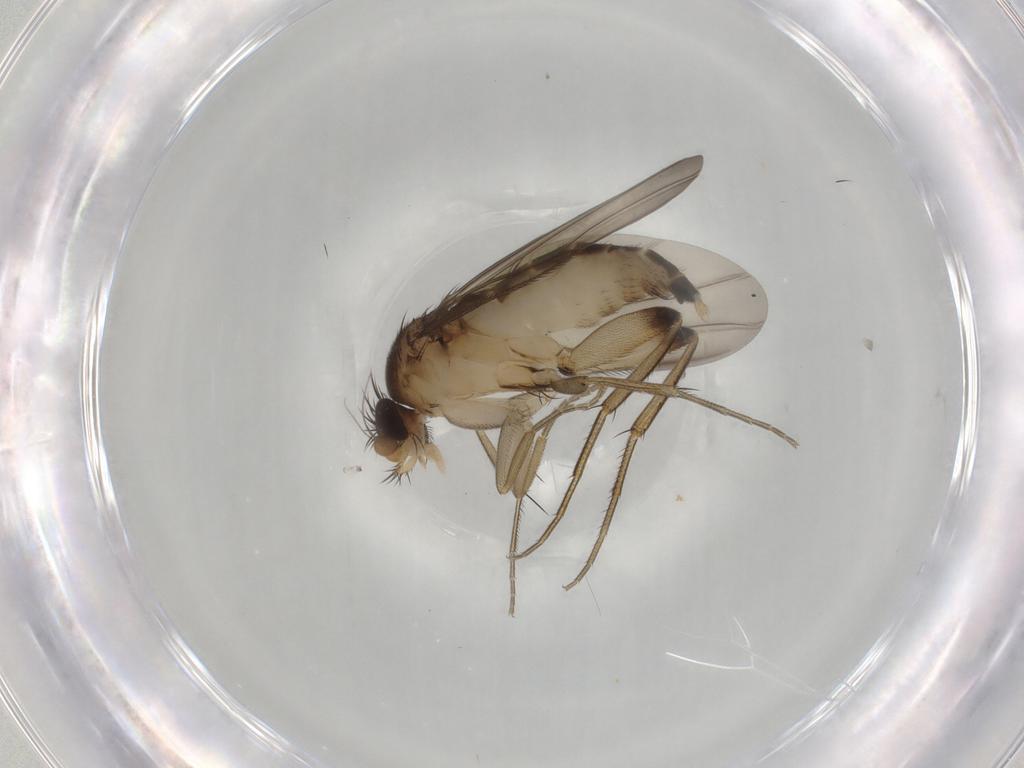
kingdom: Animalia
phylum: Arthropoda
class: Insecta
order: Diptera
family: Phoridae
